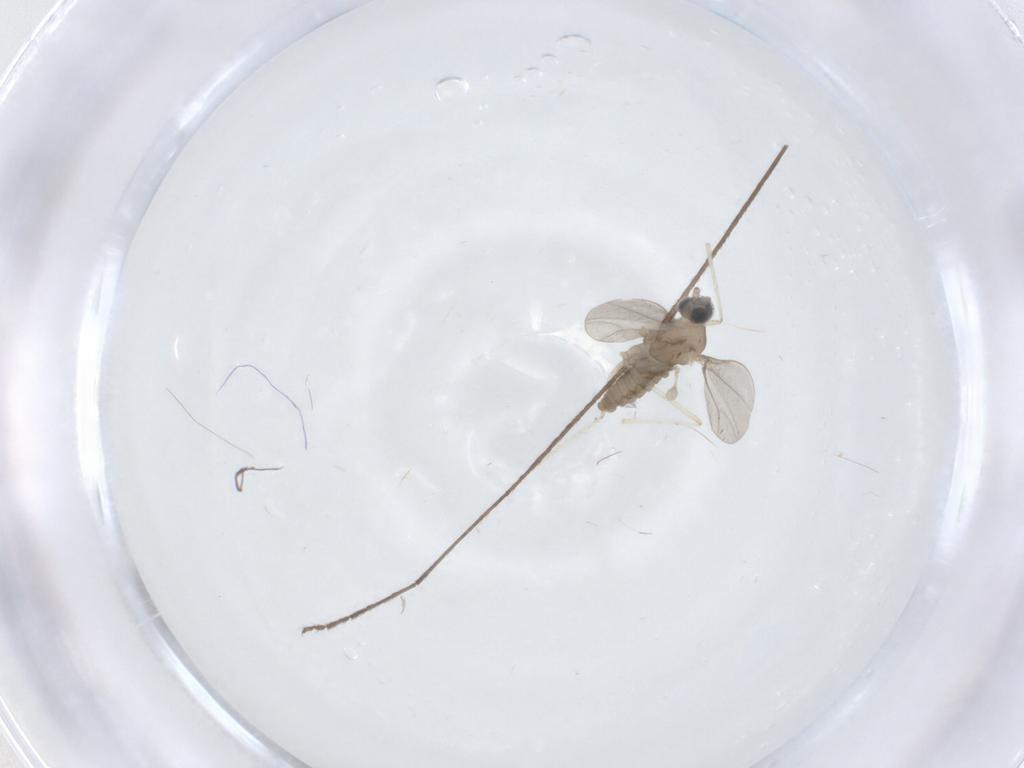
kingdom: Animalia
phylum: Arthropoda
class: Insecta
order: Diptera
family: Limoniidae
